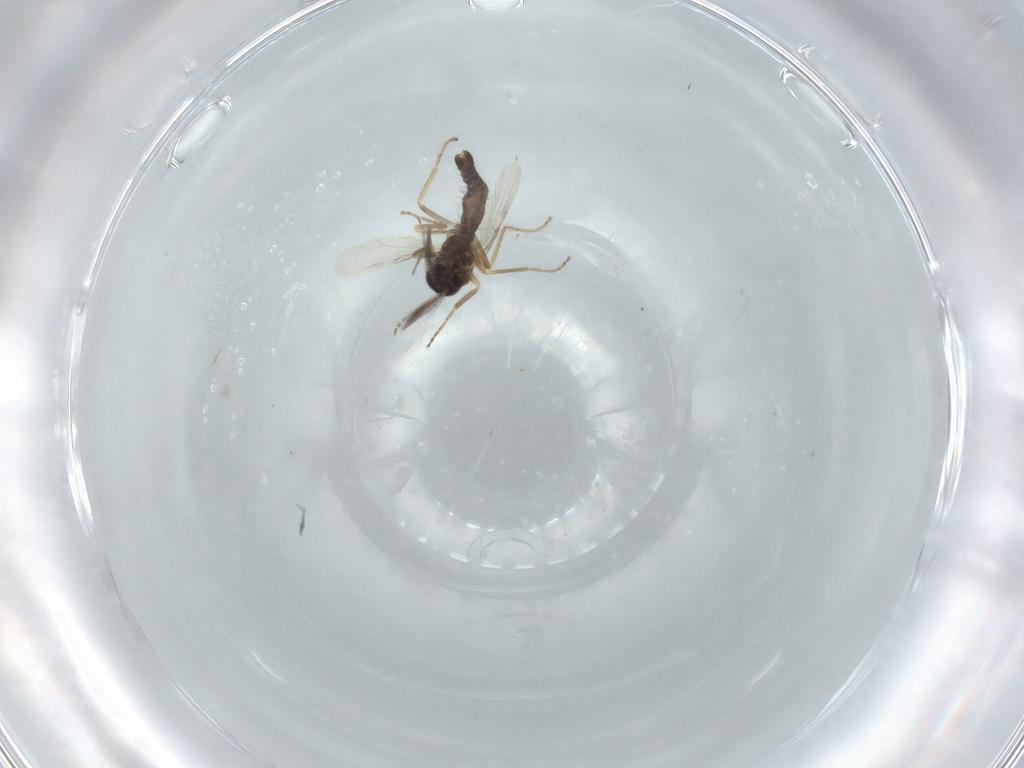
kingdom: Animalia
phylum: Arthropoda
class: Insecta
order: Diptera
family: Ceratopogonidae
